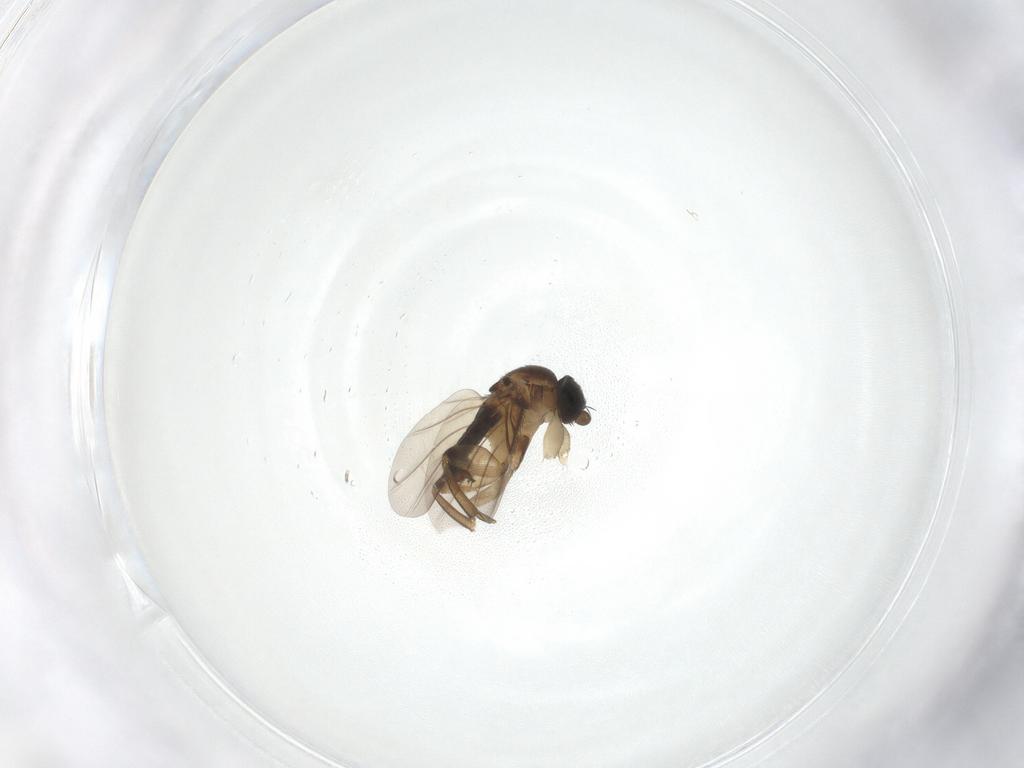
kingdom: Animalia
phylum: Arthropoda
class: Insecta
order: Diptera
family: Phoridae
